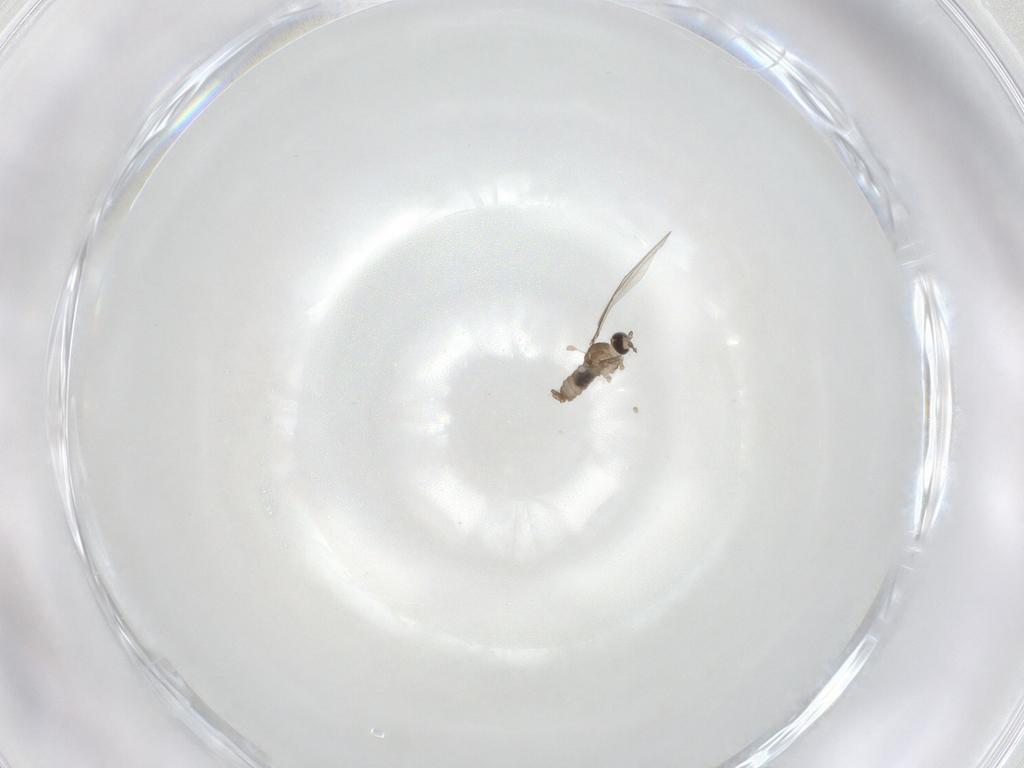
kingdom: Animalia
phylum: Arthropoda
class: Insecta
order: Diptera
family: Cecidomyiidae
